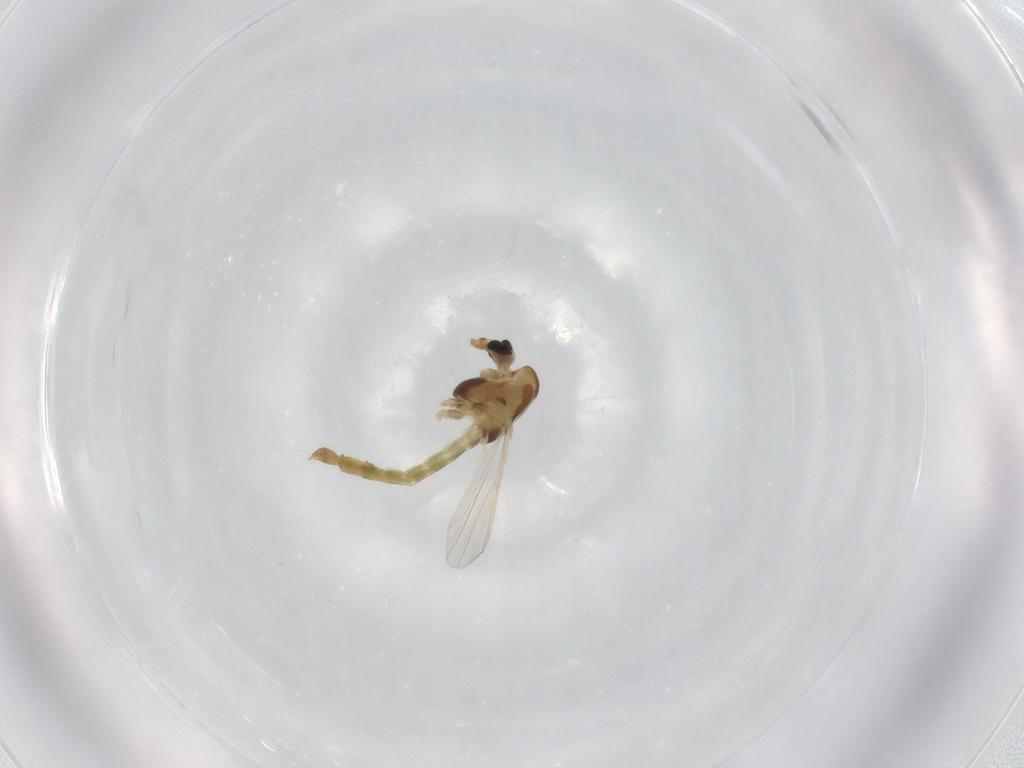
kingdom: Animalia
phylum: Arthropoda
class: Insecta
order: Diptera
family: Chironomidae
